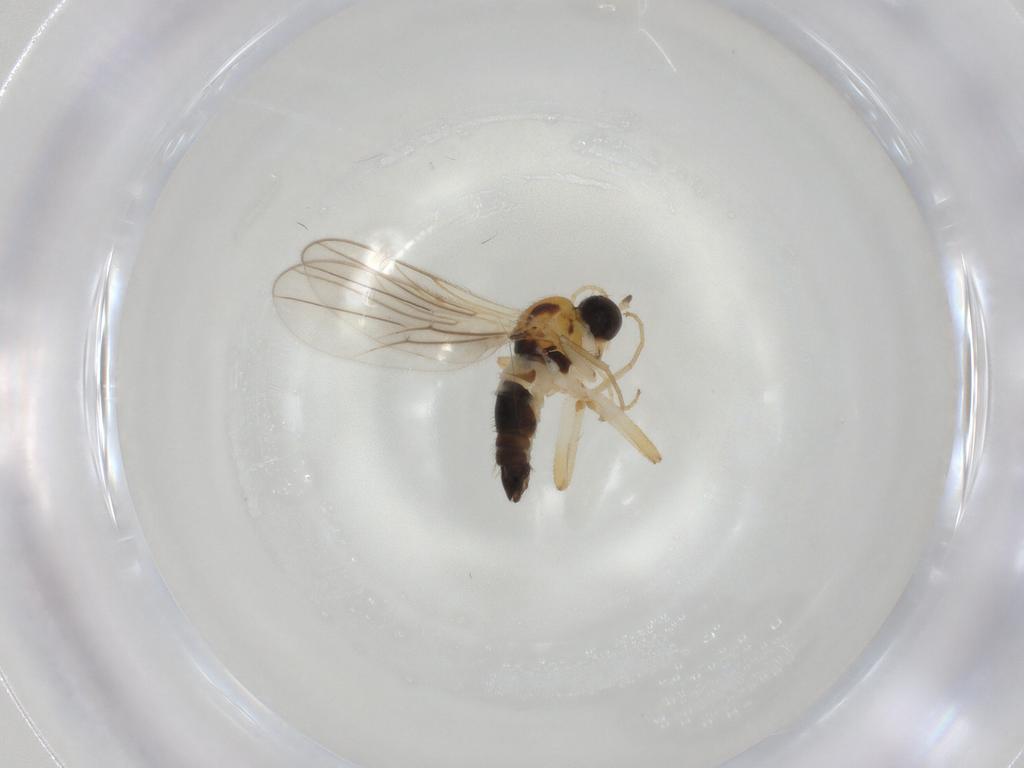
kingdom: Animalia
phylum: Arthropoda
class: Insecta
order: Diptera
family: Hybotidae
